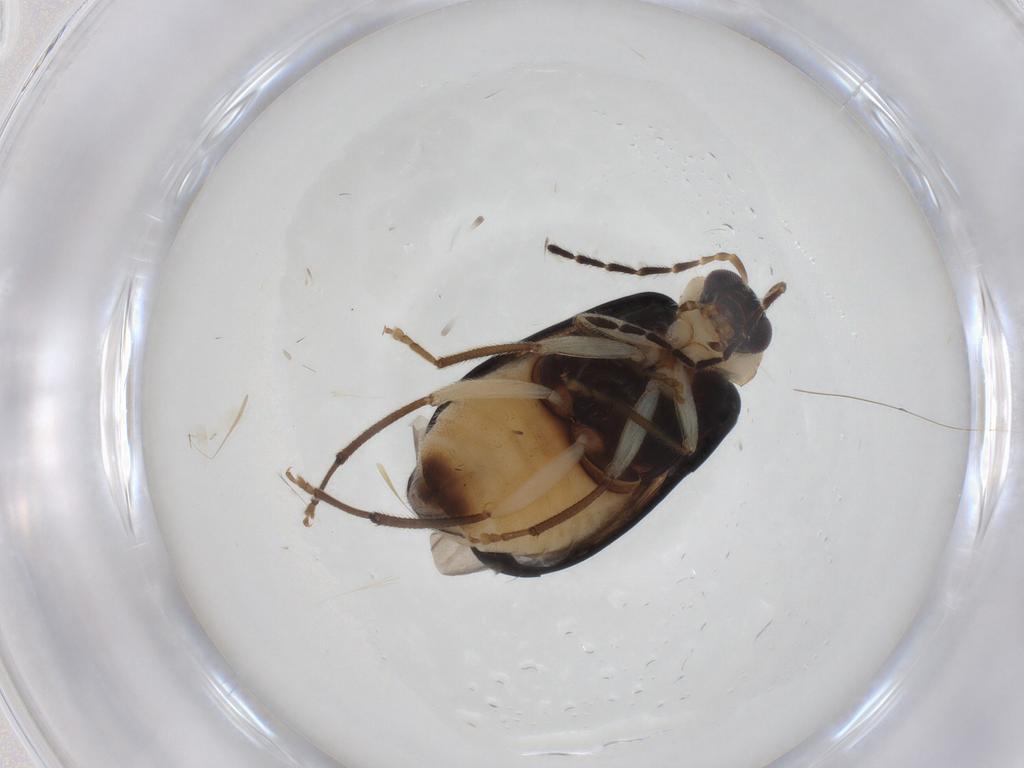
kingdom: Animalia
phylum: Arthropoda
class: Insecta
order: Coleoptera
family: Chrysomelidae
